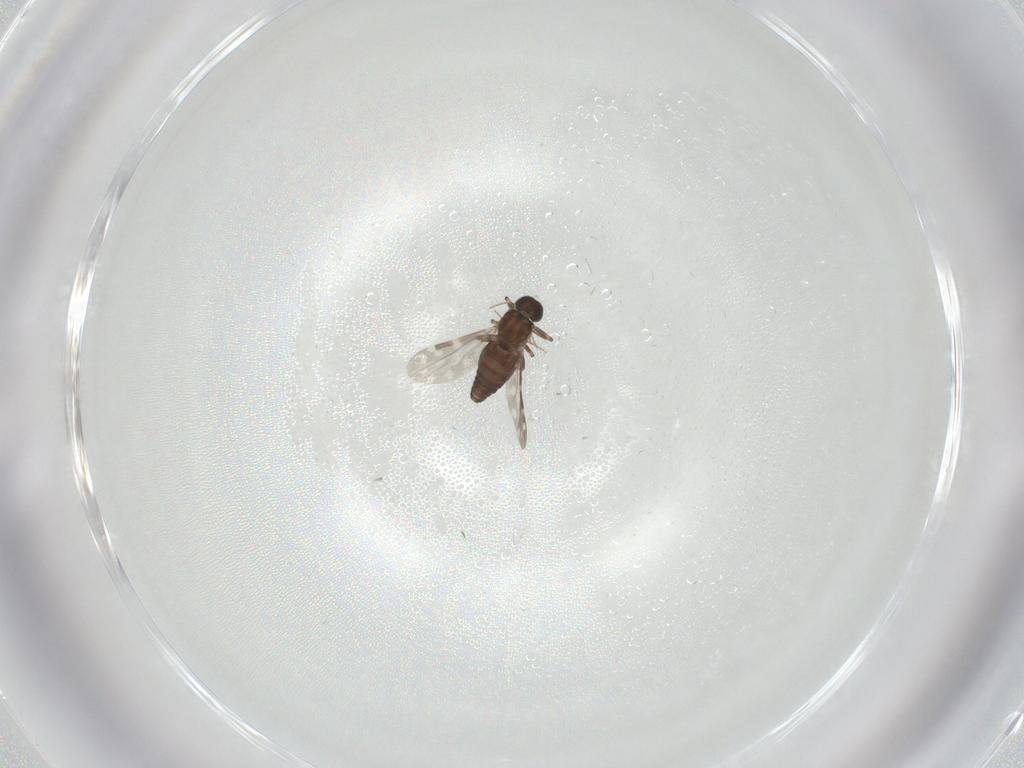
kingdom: Animalia
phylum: Arthropoda
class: Insecta
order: Diptera
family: Ceratopogonidae
